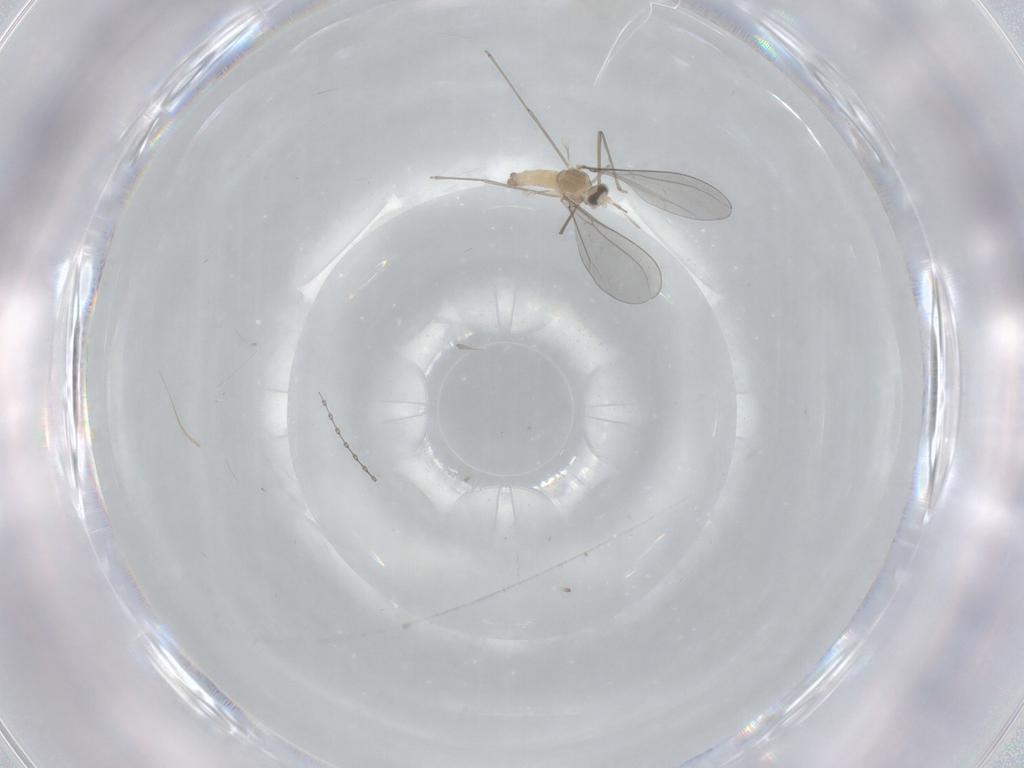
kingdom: Animalia
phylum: Arthropoda
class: Insecta
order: Diptera
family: Cecidomyiidae
